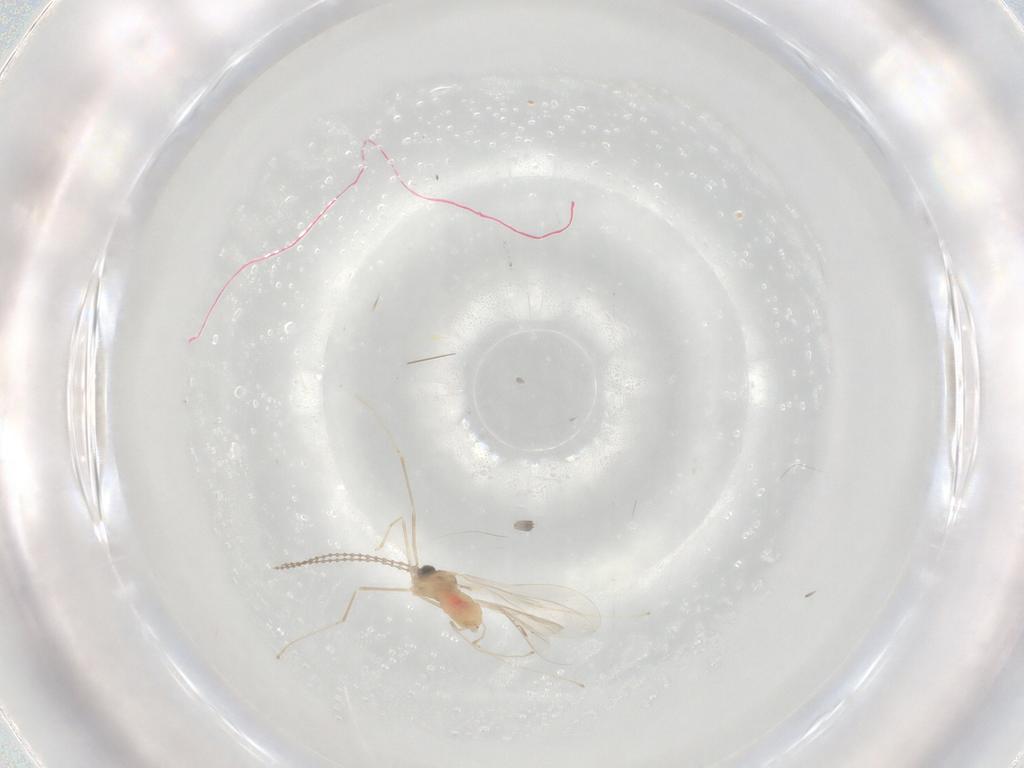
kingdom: Animalia
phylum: Arthropoda
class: Insecta
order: Diptera
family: Cecidomyiidae
